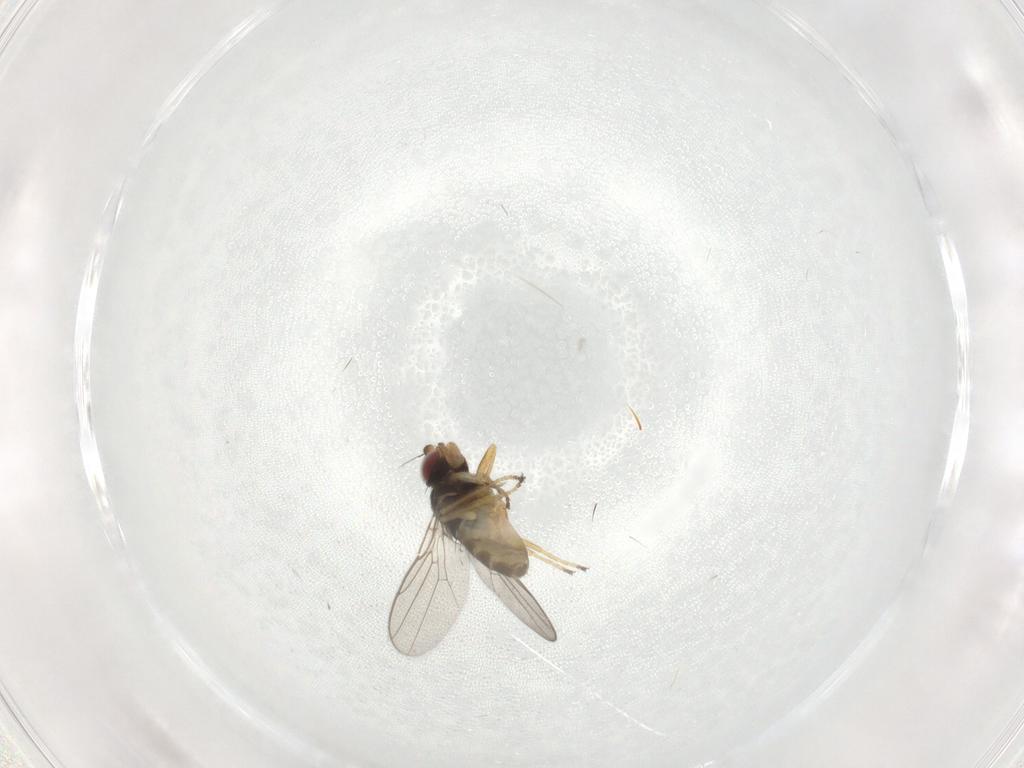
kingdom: Animalia
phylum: Arthropoda
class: Insecta
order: Diptera
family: Chloropidae
